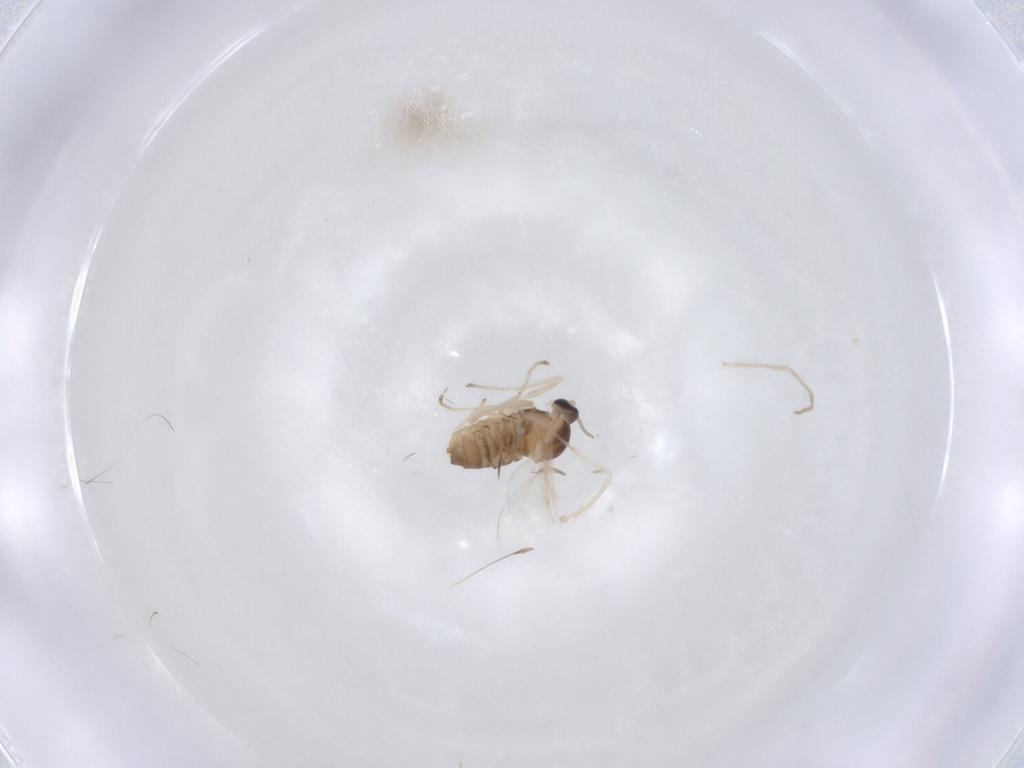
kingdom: Animalia
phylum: Arthropoda
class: Insecta
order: Diptera
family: Cecidomyiidae
